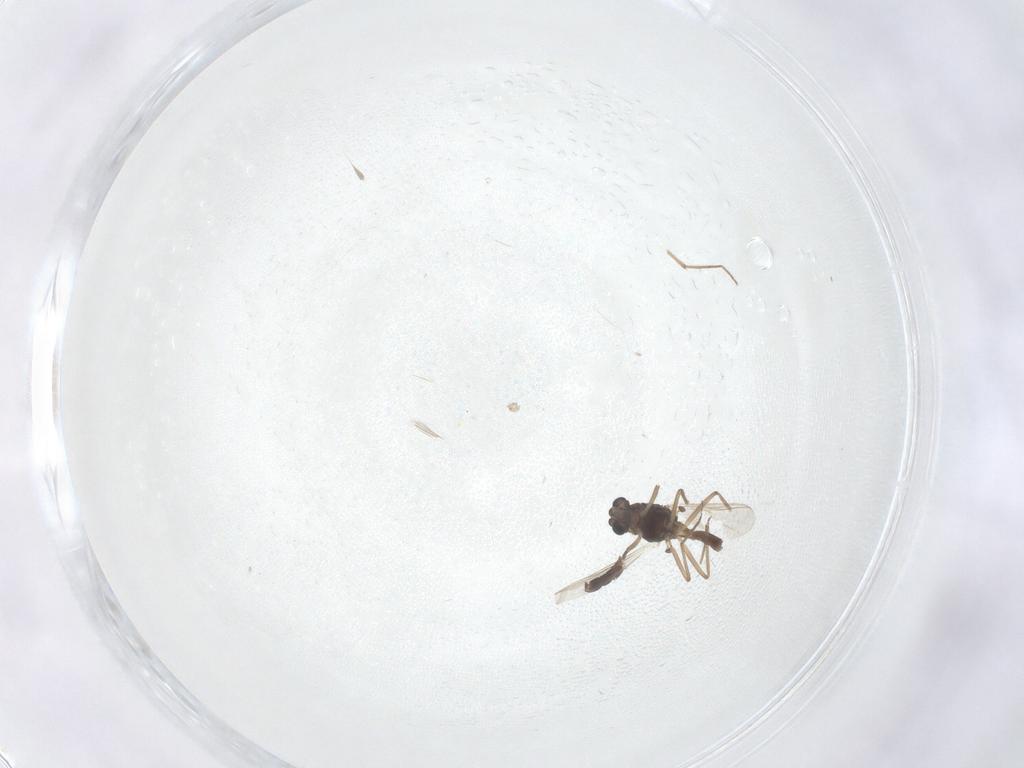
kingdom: Animalia
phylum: Arthropoda
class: Insecta
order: Diptera
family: Chironomidae
